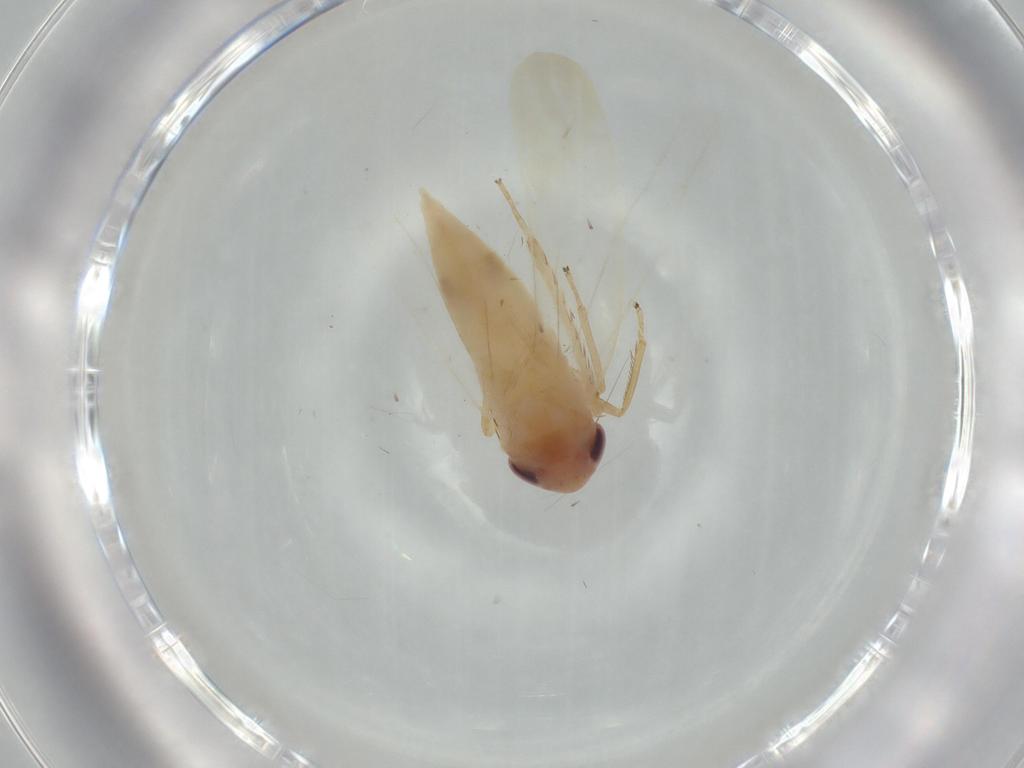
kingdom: Animalia
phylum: Arthropoda
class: Insecta
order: Hemiptera
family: Cicadellidae
